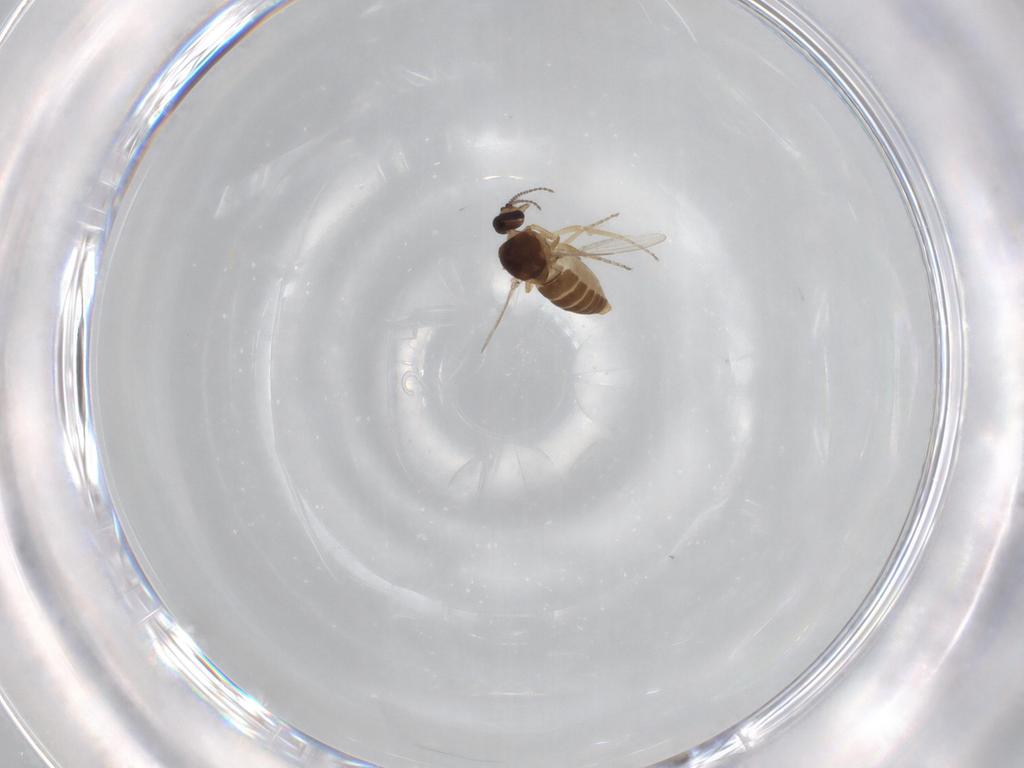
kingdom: Animalia
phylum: Arthropoda
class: Insecta
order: Diptera
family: Ceratopogonidae
